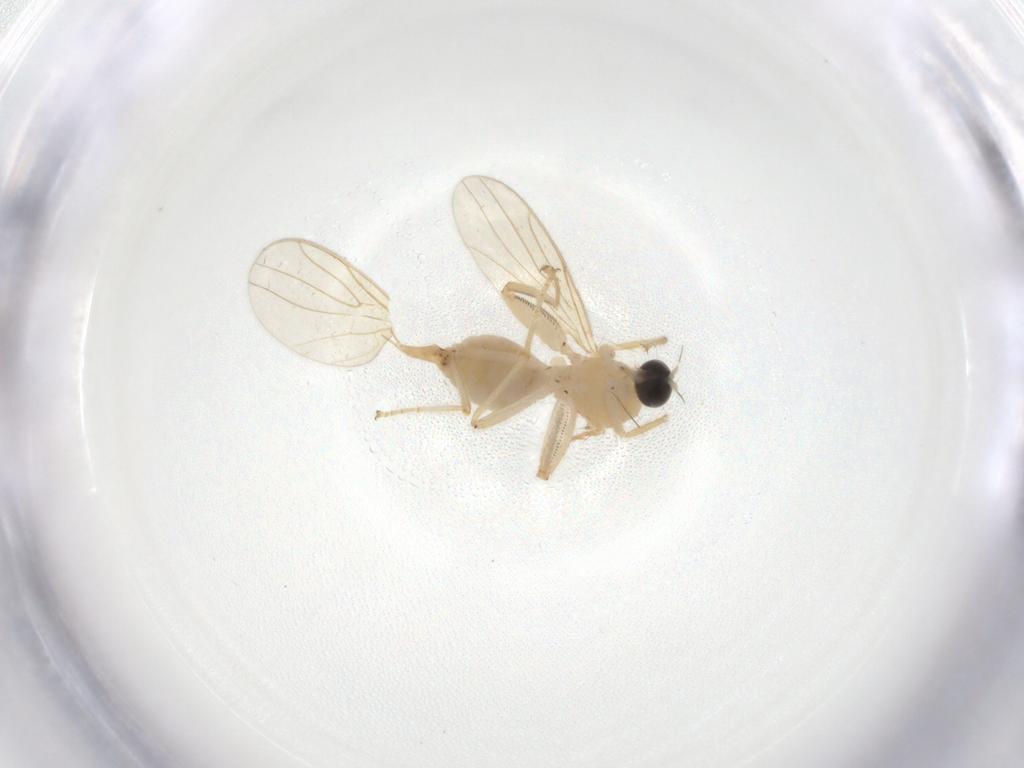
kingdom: Animalia
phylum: Arthropoda
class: Insecta
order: Diptera
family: Hybotidae
